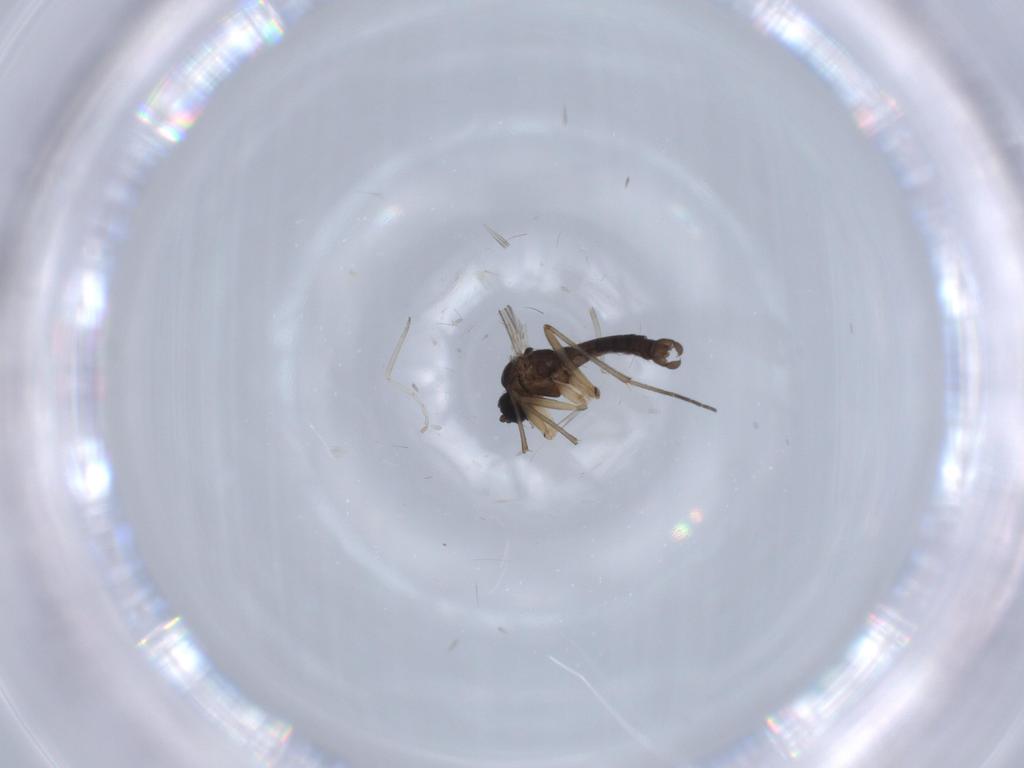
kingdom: Animalia
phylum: Arthropoda
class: Insecta
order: Diptera
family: Sciaridae
